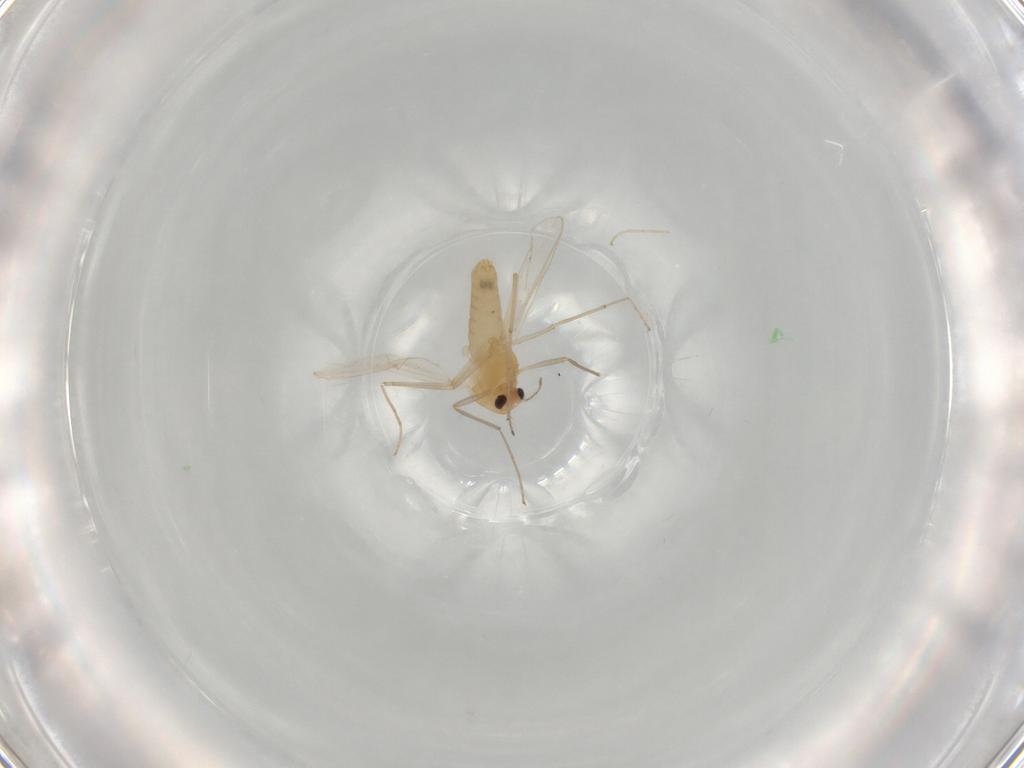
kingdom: Animalia
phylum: Arthropoda
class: Insecta
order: Diptera
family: Chironomidae
